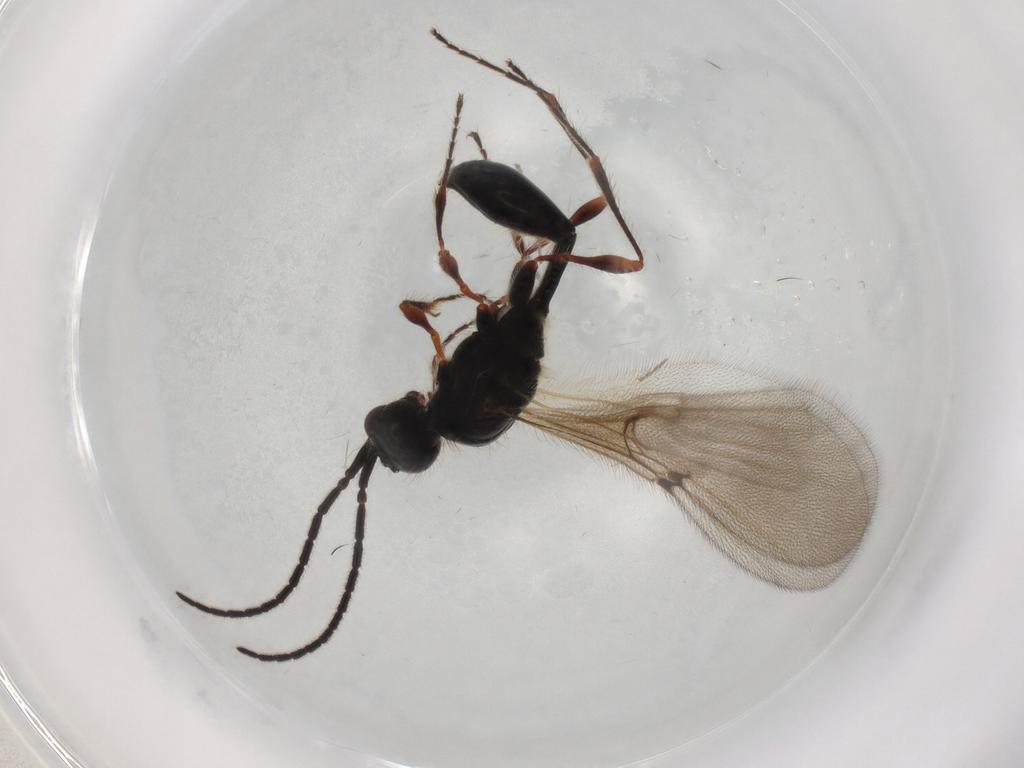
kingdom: Animalia
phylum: Arthropoda
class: Insecta
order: Hymenoptera
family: Diapriidae
